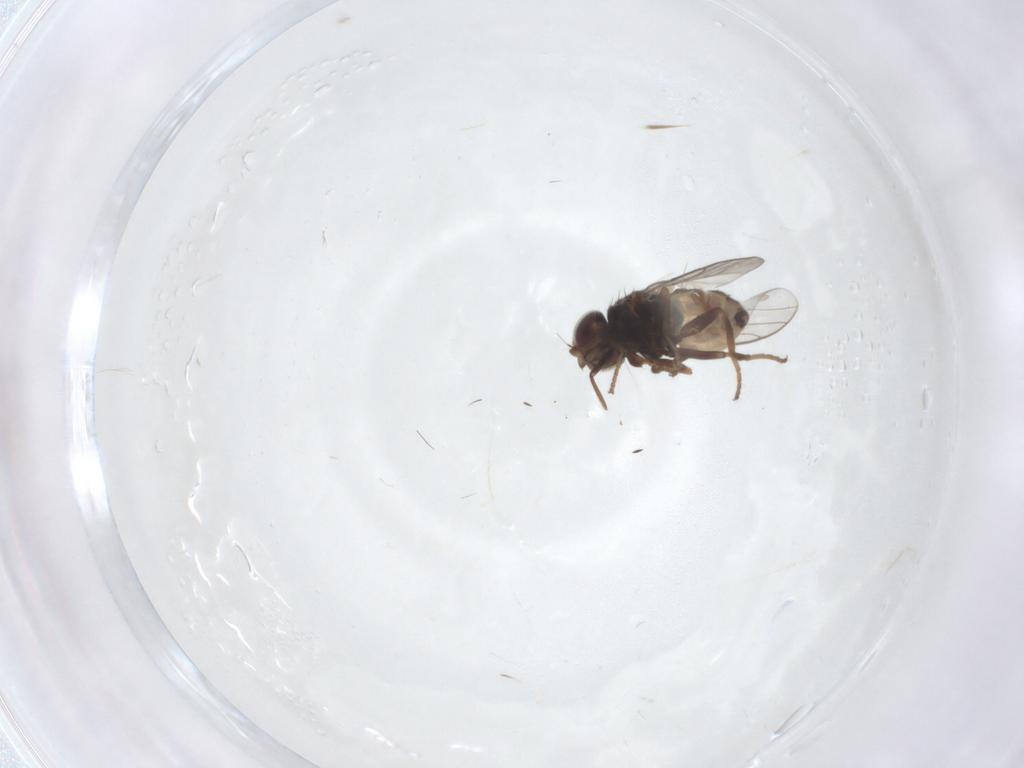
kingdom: Animalia
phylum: Arthropoda
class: Insecta
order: Diptera
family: Chloropidae
